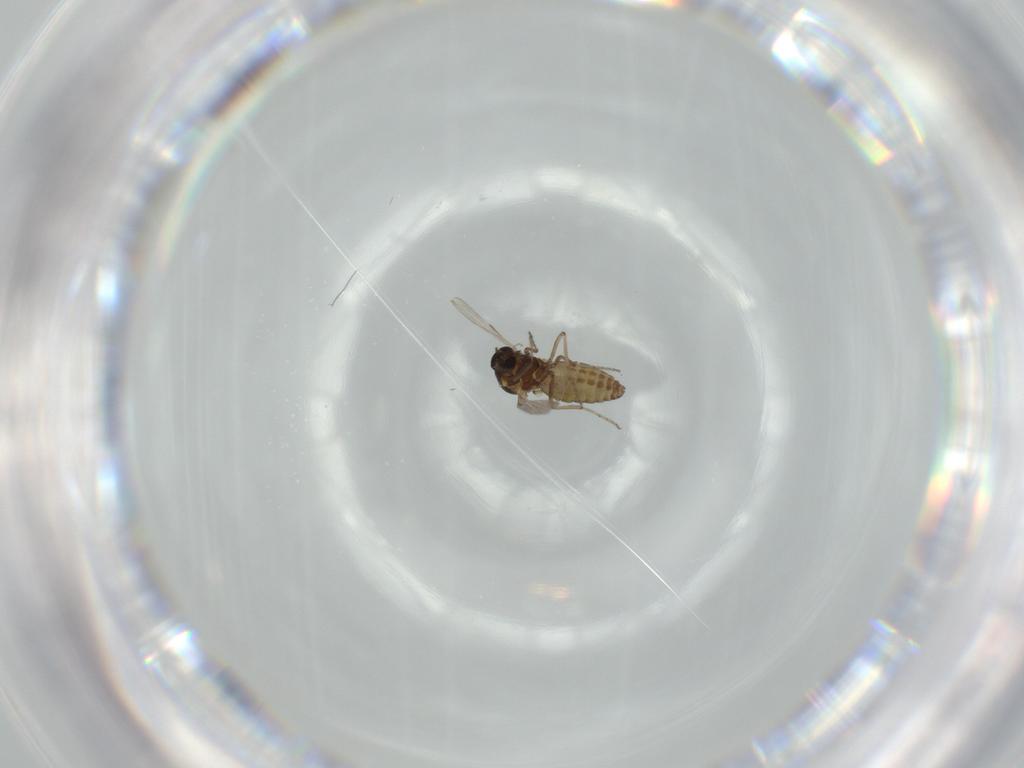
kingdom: Animalia
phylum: Arthropoda
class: Insecta
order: Diptera
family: Ceratopogonidae
